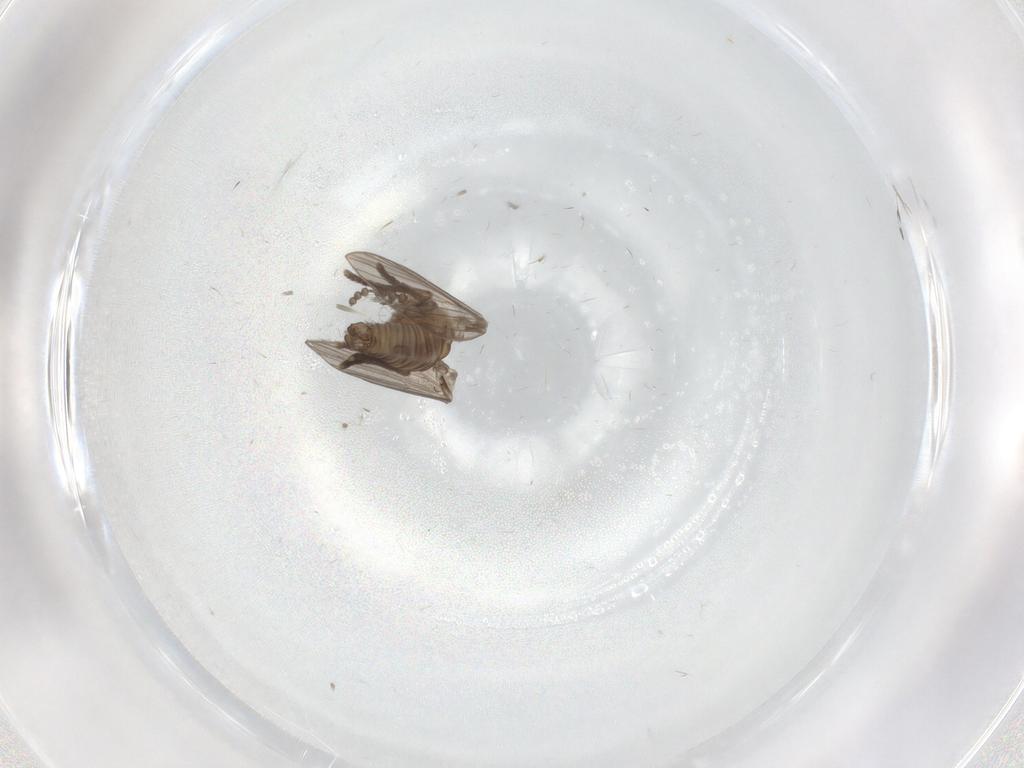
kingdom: Animalia
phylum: Arthropoda
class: Insecta
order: Diptera
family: Psychodidae
